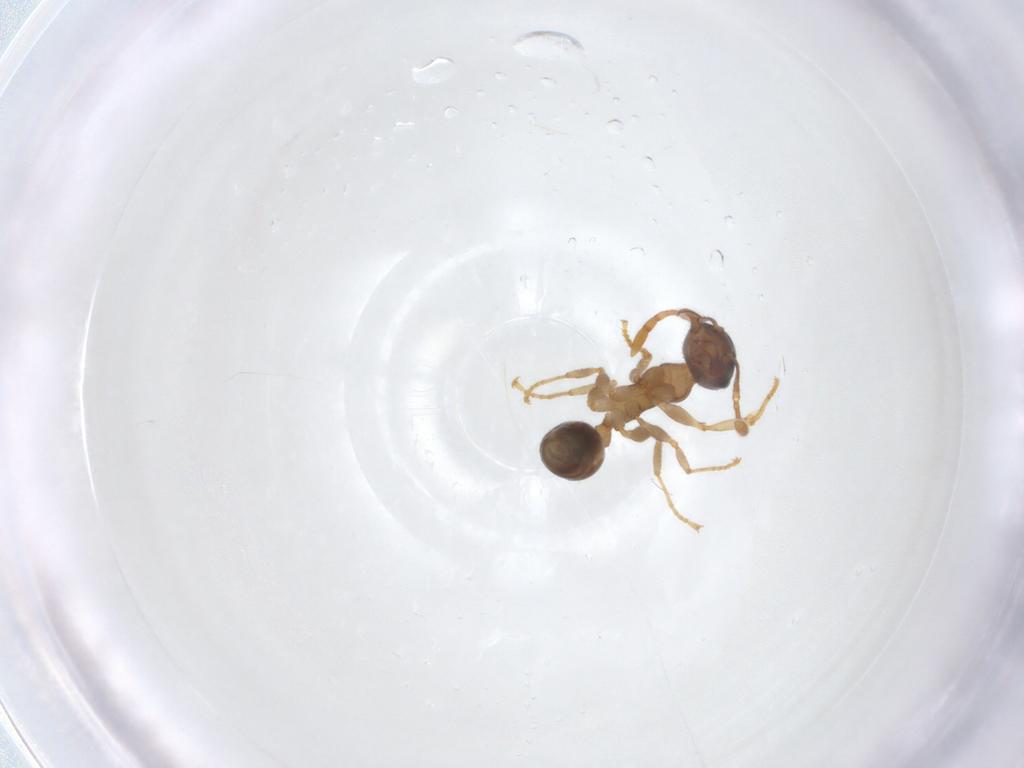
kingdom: Animalia
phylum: Arthropoda
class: Insecta
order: Hymenoptera
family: Formicidae
